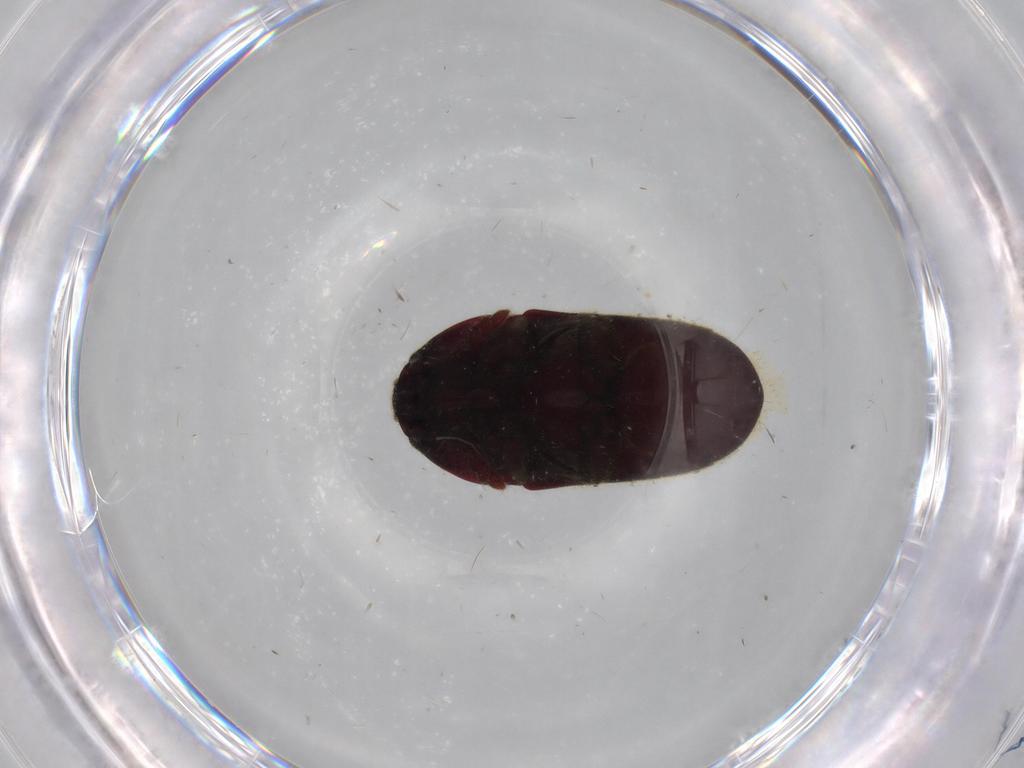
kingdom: Animalia
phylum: Arthropoda
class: Insecta
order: Coleoptera
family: Throscidae
